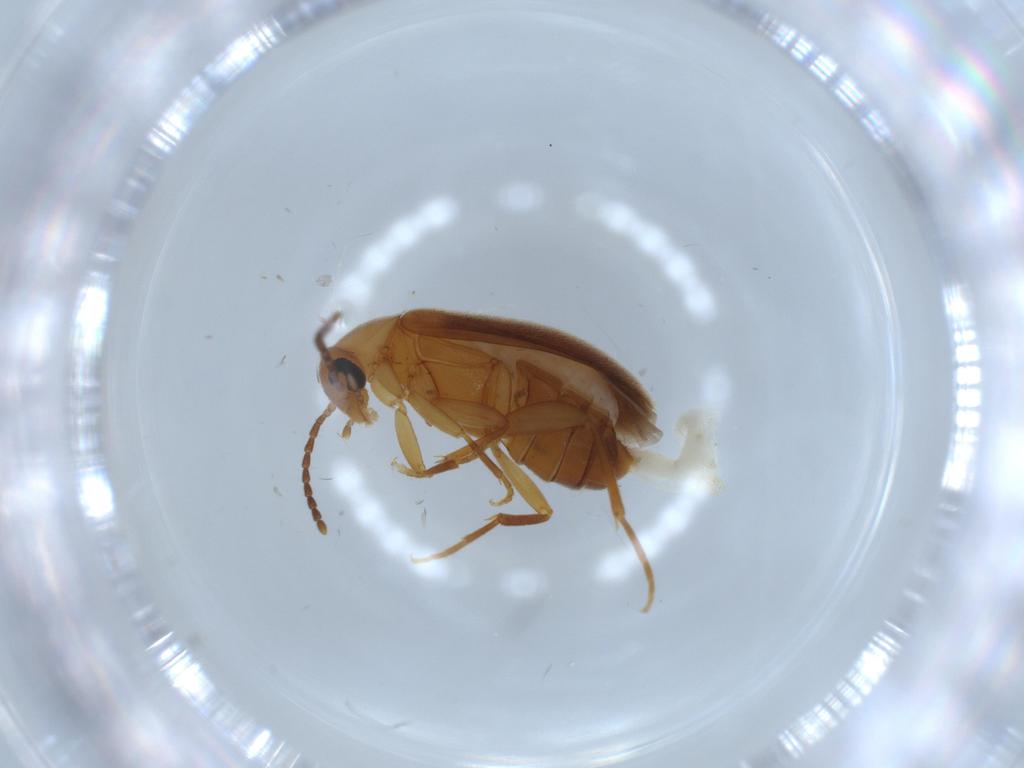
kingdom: Animalia
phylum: Arthropoda
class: Insecta
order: Coleoptera
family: Scraptiidae
